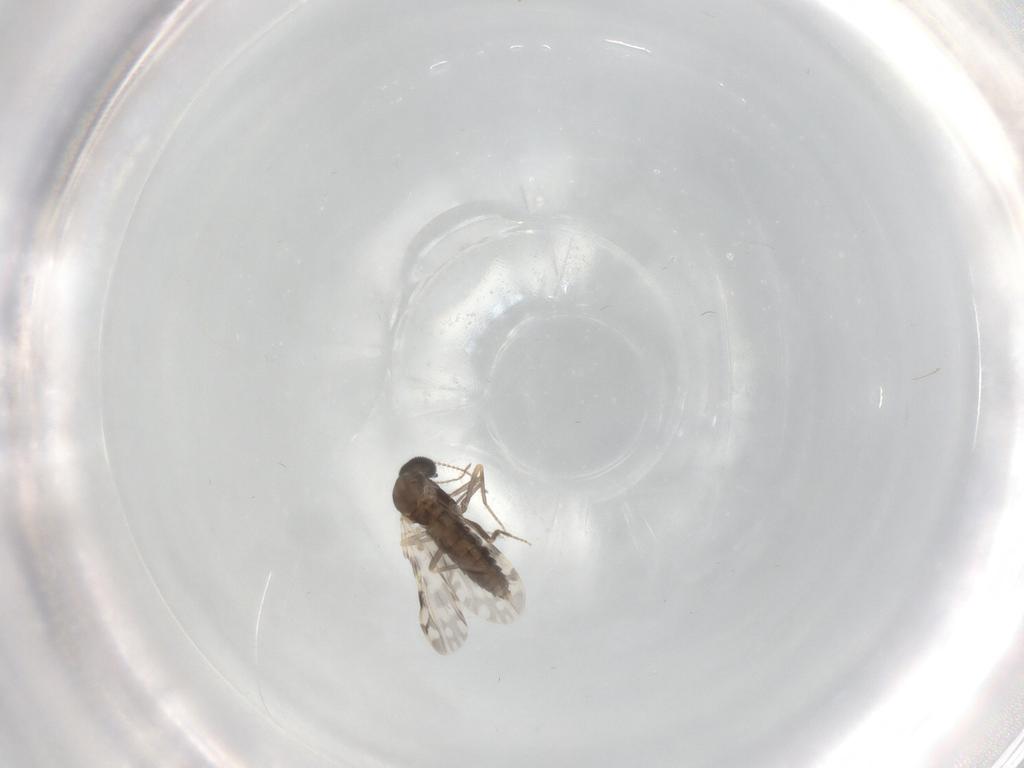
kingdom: Animalia
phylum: Arthropoda
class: Insecta
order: Diptera
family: Ceratopogonidae
